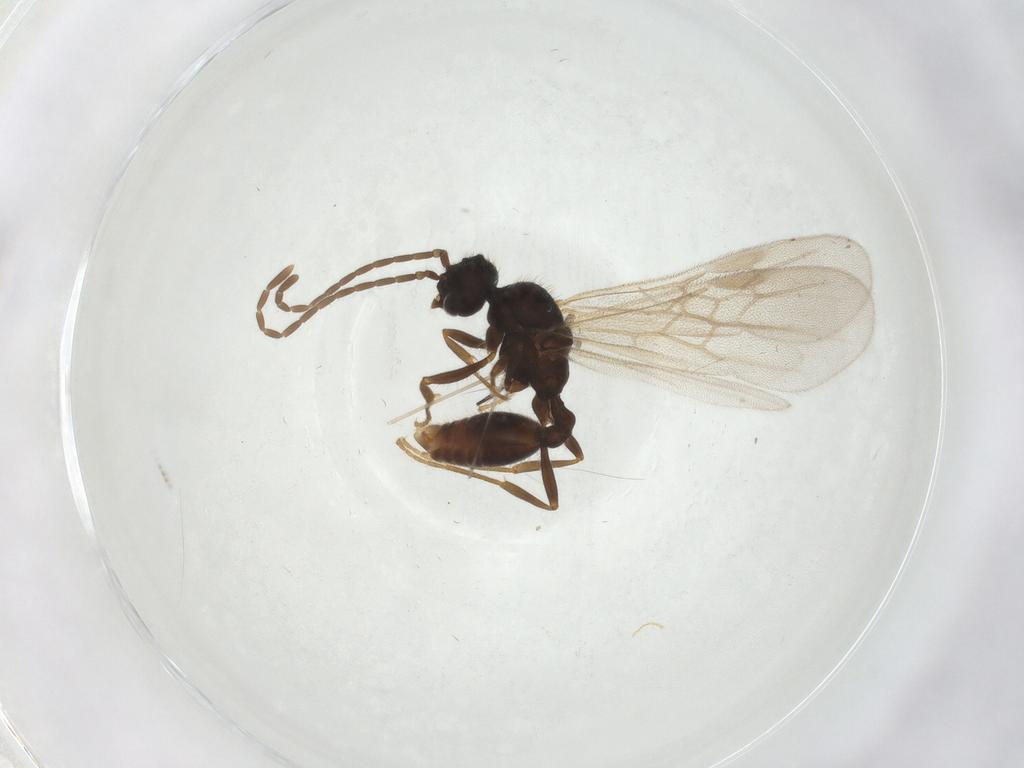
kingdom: Animalia
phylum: Arthropoda
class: Insecta
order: Hymenoptera
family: Formicidae
